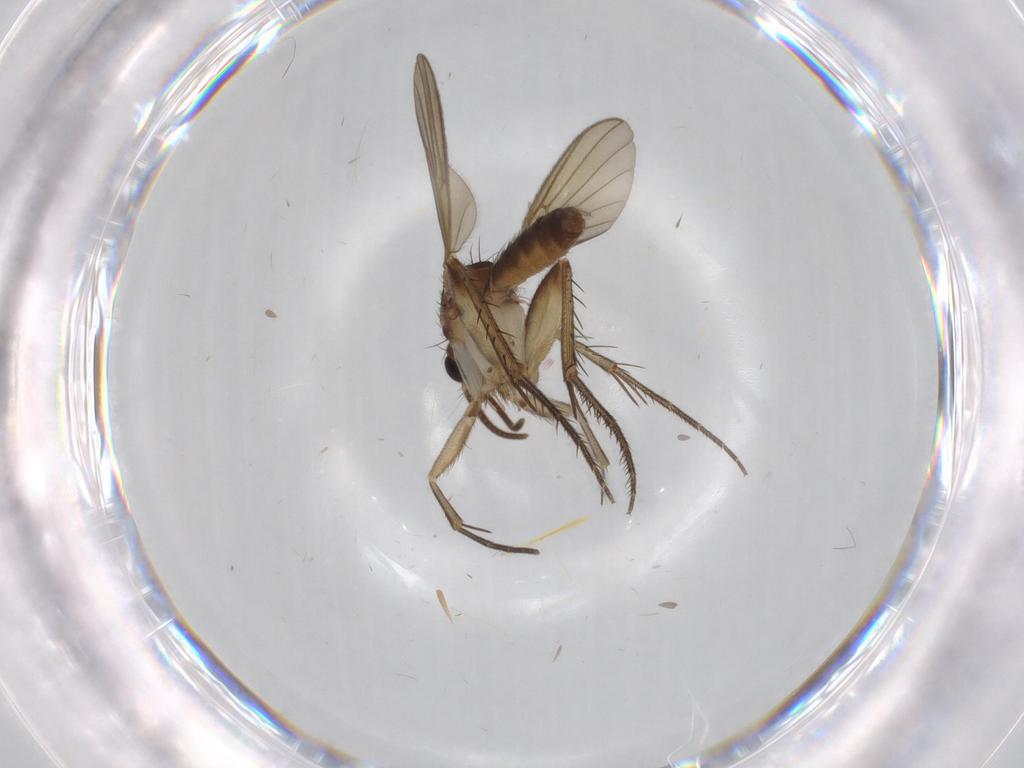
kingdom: Animalia
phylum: Arthropoda
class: Insecta
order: Diptera
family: Chironomidae
